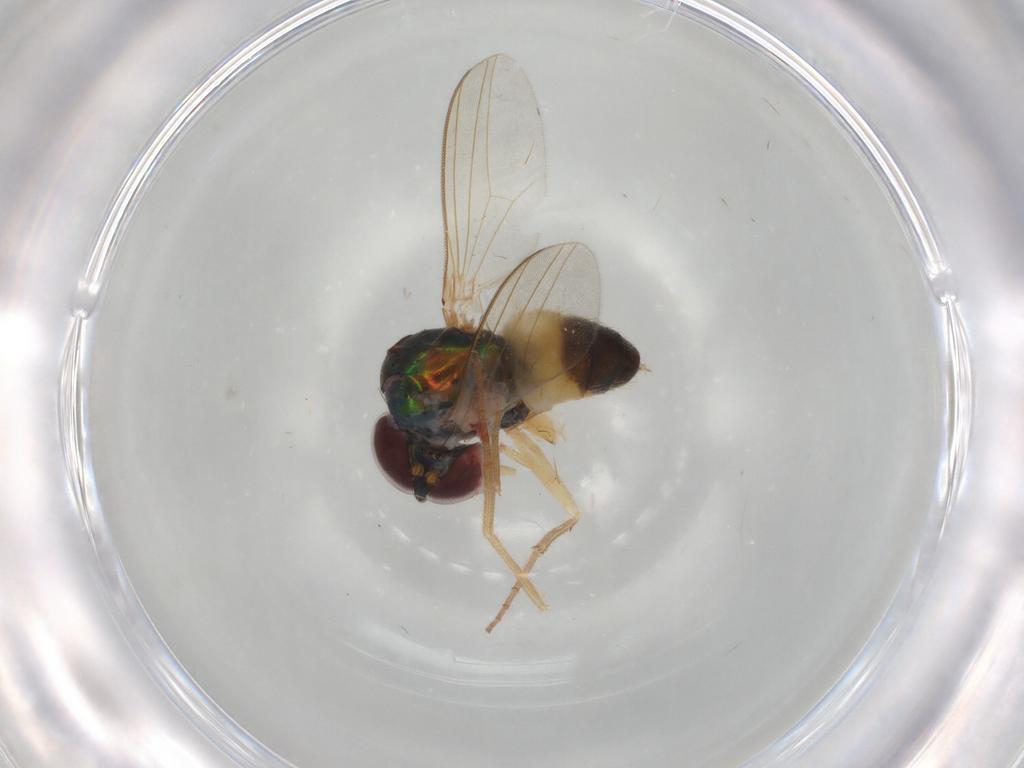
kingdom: Animalia
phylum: Arthropoda
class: Insecta
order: Diptera
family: Dolichopodidae
